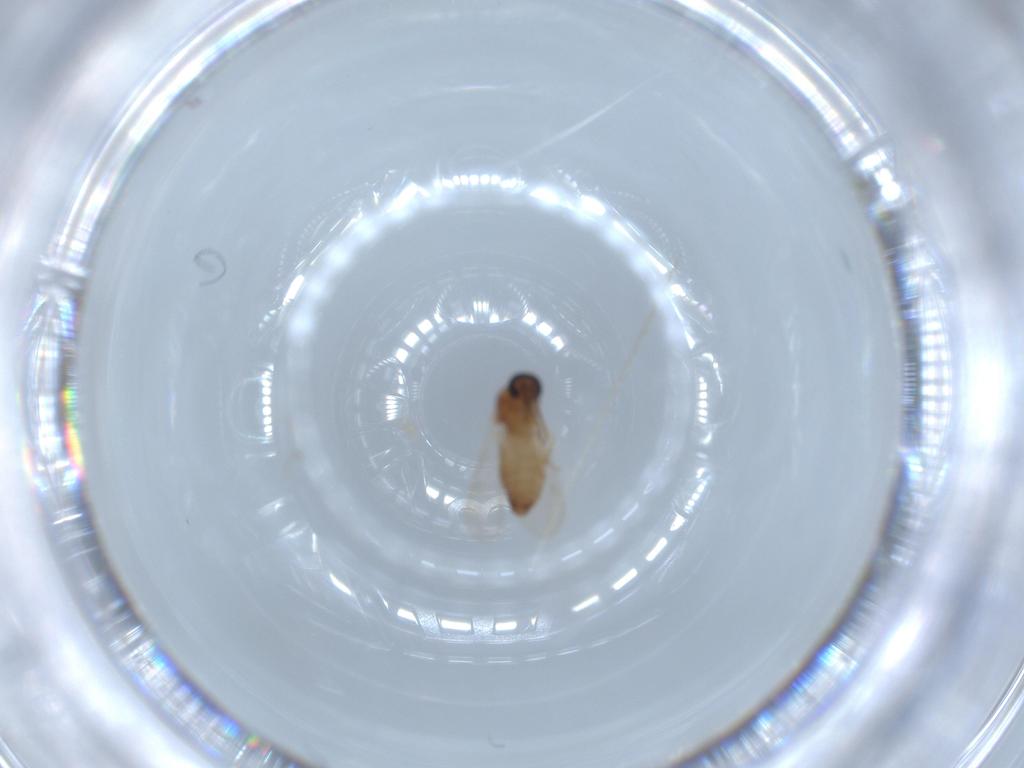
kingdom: Animalia
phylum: Arthropoda
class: Insecta
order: Diptera
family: Ceratopogonidae
